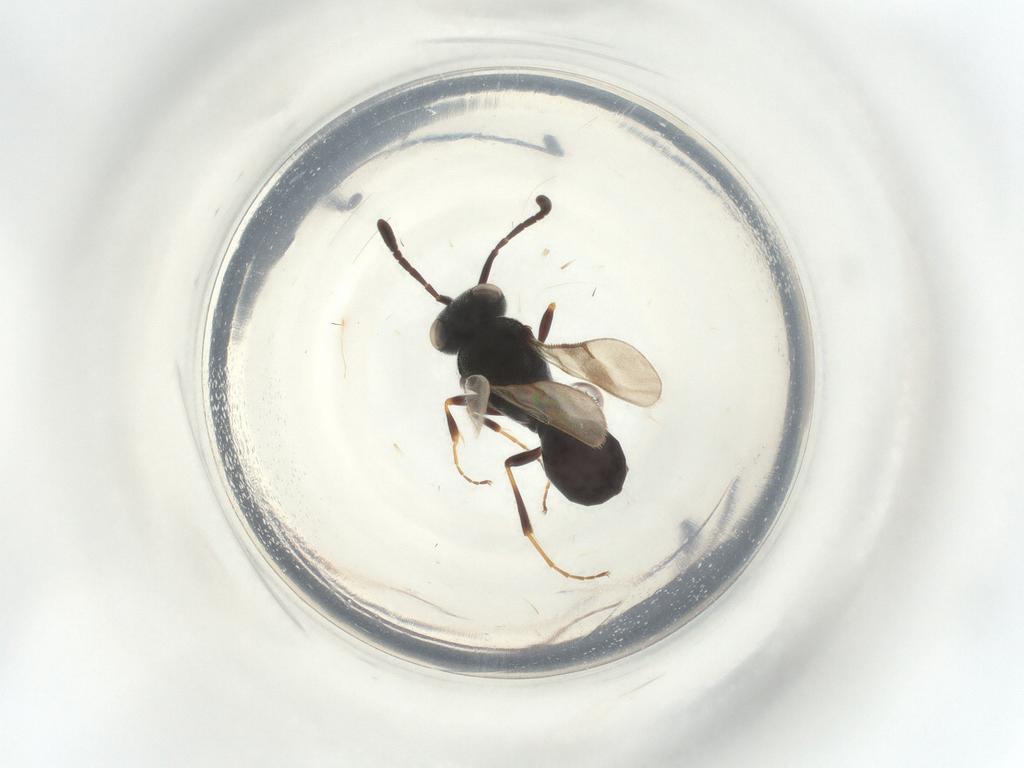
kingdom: Animalia
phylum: Arthropoda
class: Insecta
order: Hymenoptera
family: Scelionidae
